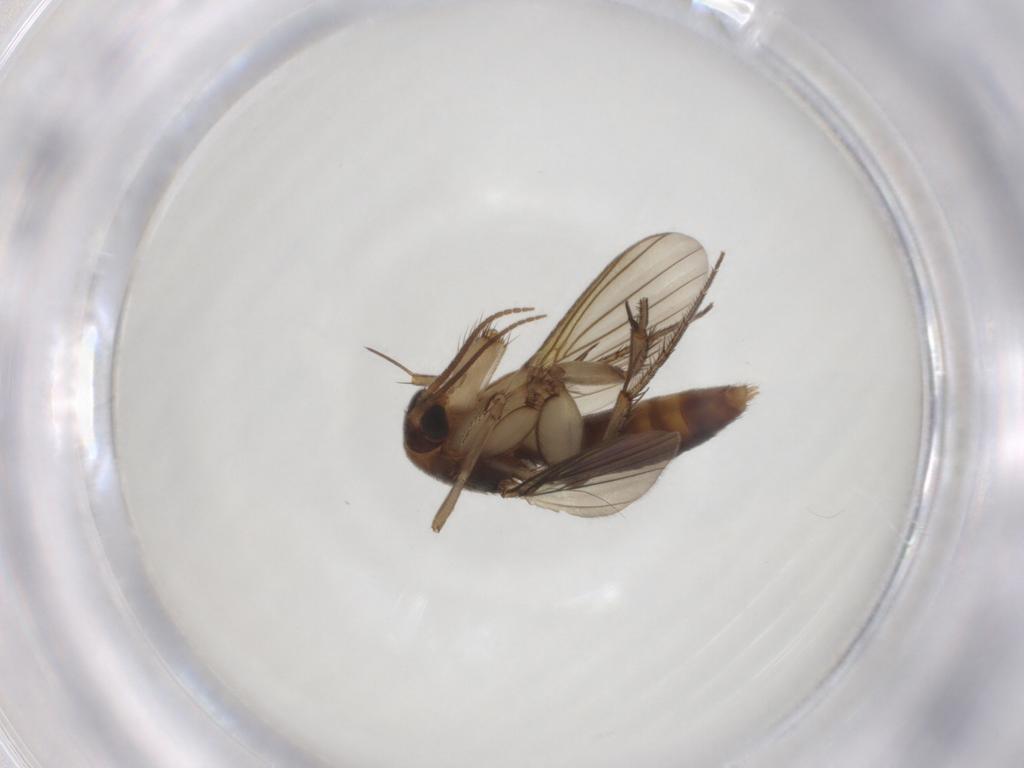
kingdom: Animalia
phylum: Arthropoda
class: Insecta
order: Diptera
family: Mycetophilidae
